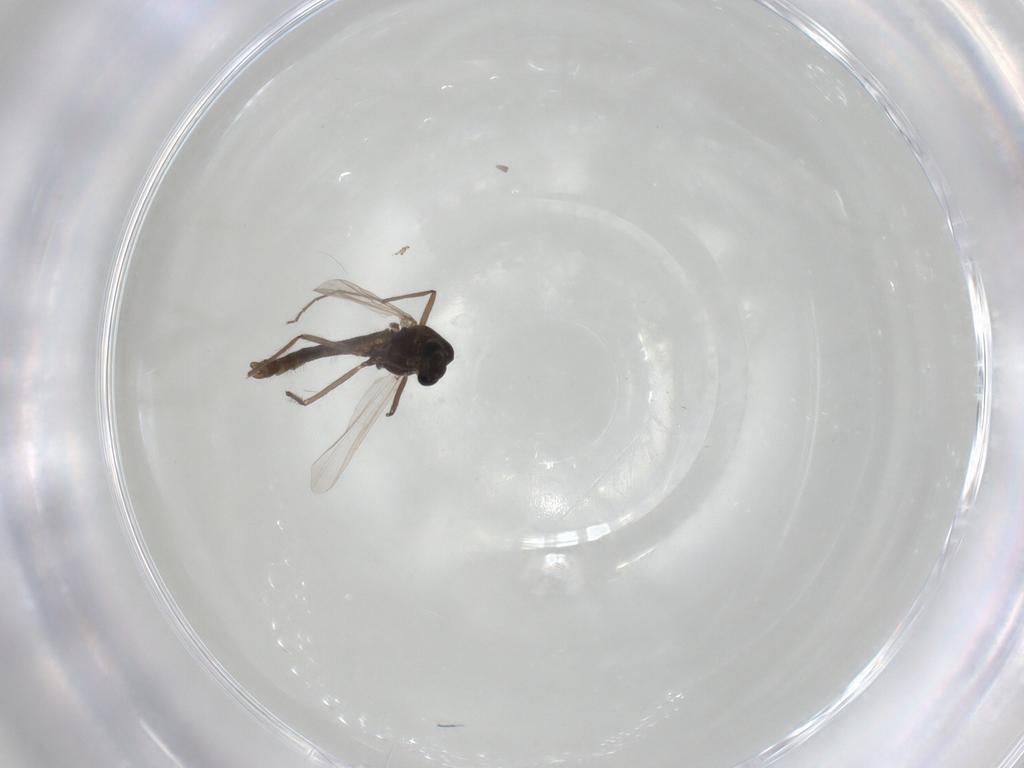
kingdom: Animalia
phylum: Arthropoda
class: Insecta
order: Diptera
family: Chironomidae
